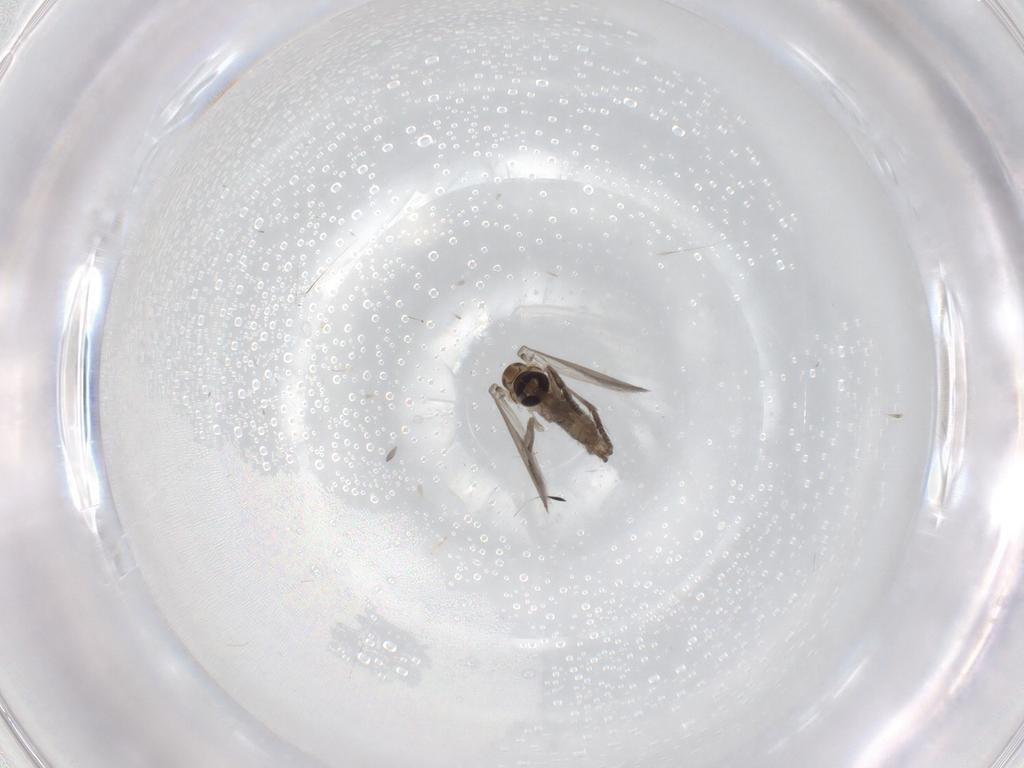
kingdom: Animalia
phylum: Arthropoda
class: Insecta
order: Diptera
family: Psychodidae
